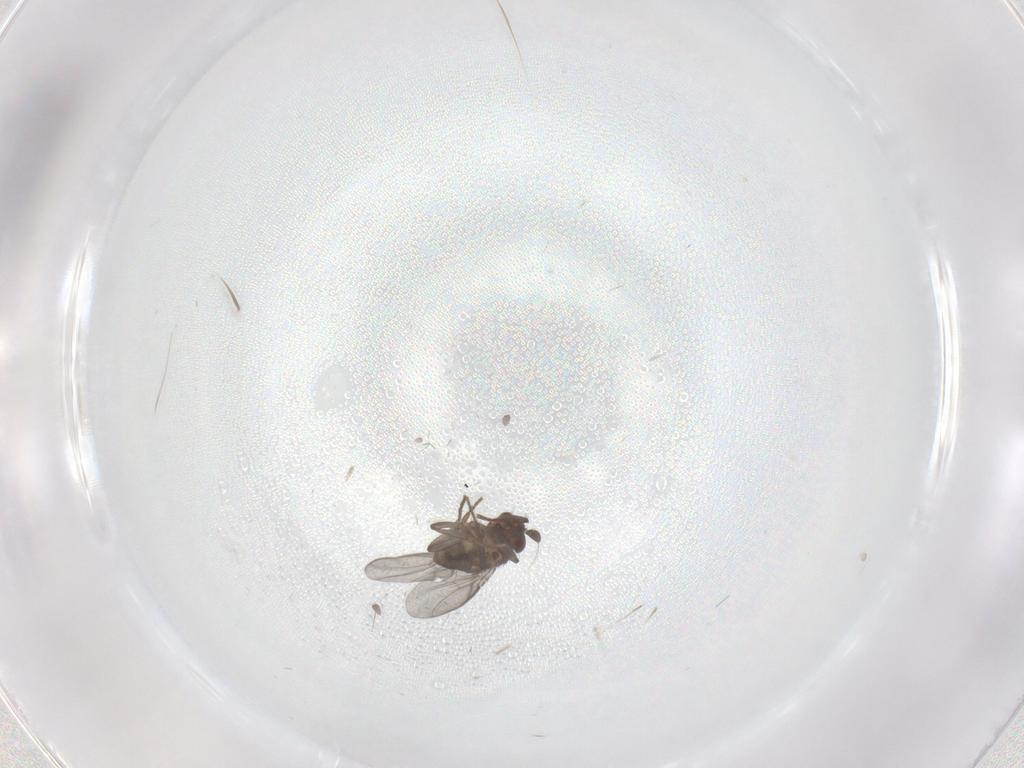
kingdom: Animalia
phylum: Arthropoda
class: Insecta
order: Diptera
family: Sphaeroceridae
